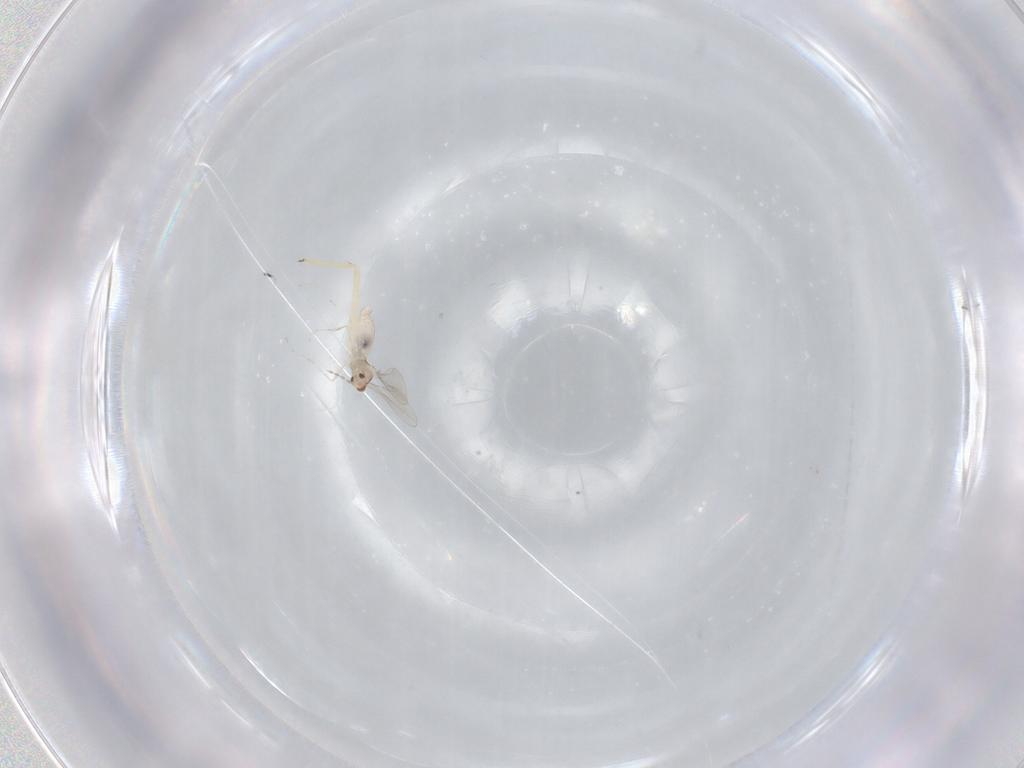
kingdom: Animalia
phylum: Arthropoda
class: Insecta
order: Diptera
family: Cecidomyiidae
